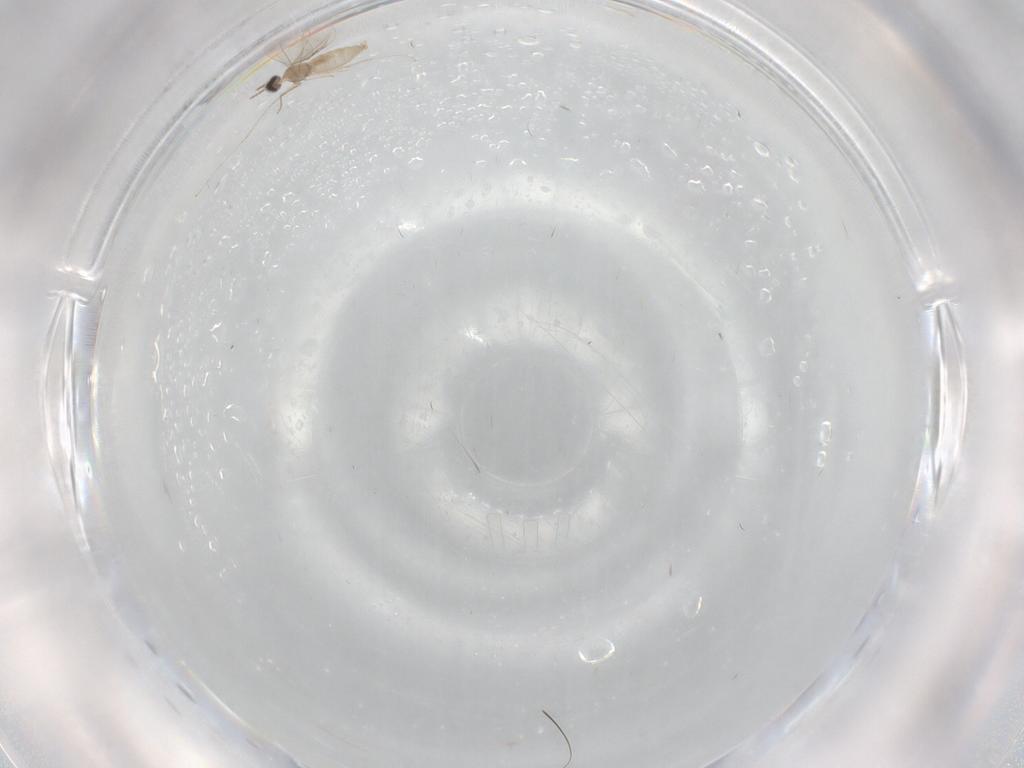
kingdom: Animalia
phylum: Arthropoda
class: Insecta
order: Diptera
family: Cecidomyiidae
